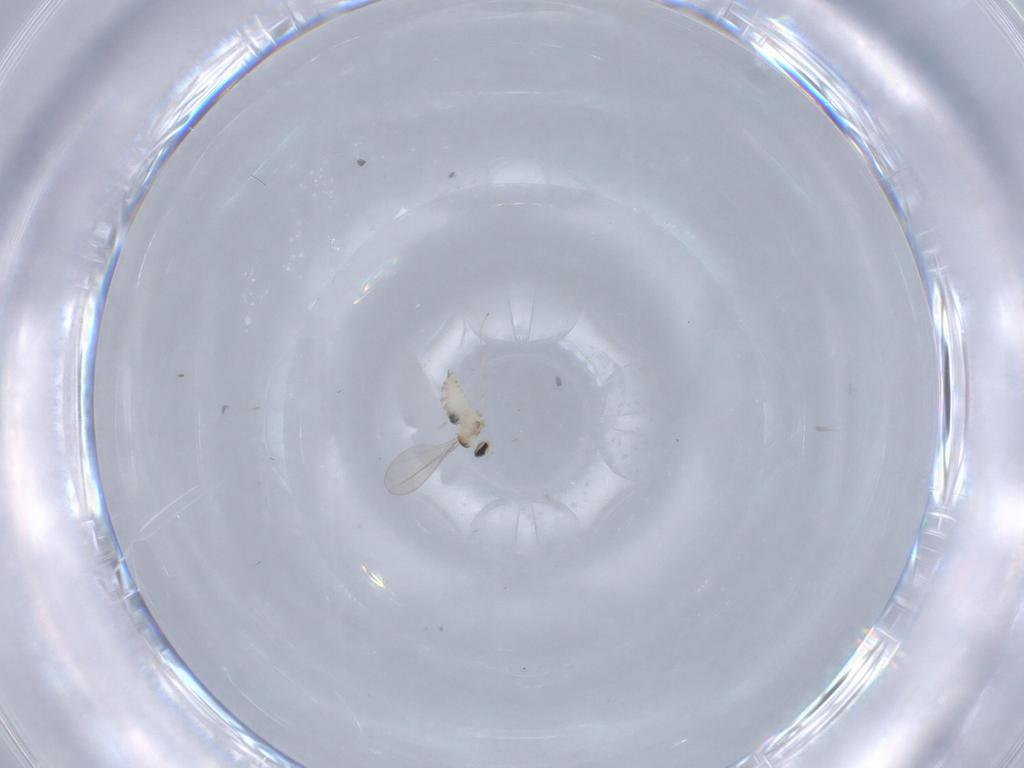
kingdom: Animalia
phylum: Arthropoda
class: Insecta
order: Diptera
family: Cecidomyiidae
